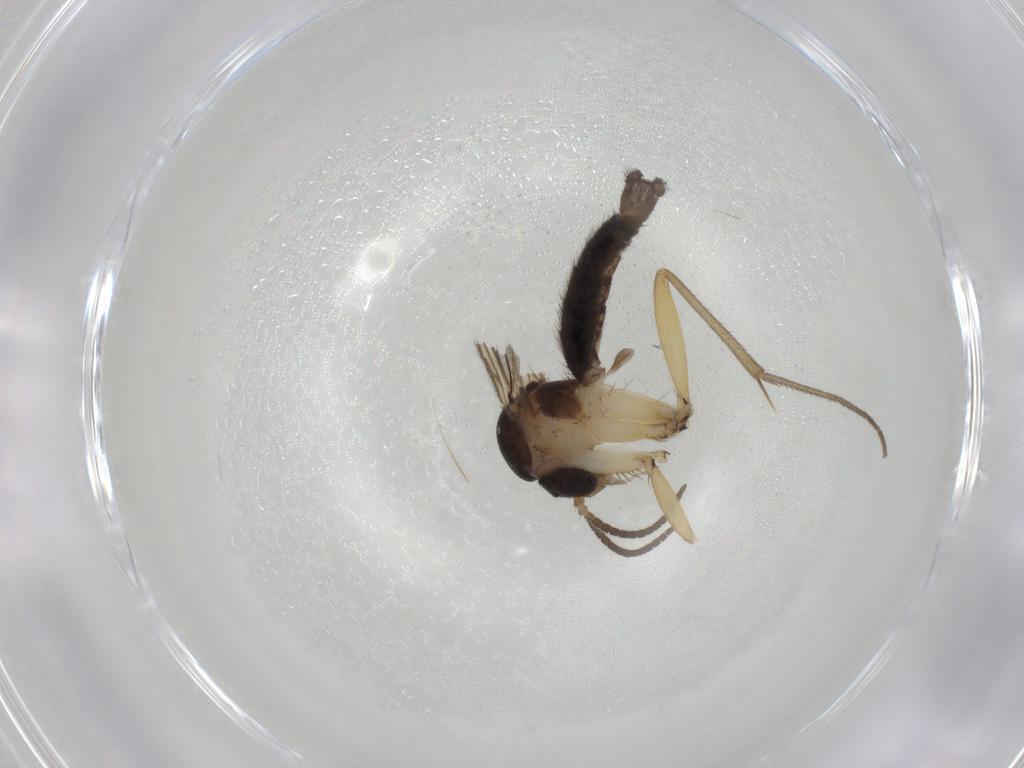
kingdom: Animalia
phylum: Arthropoda
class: Insecta
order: Diptera
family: Mycetophilidae
